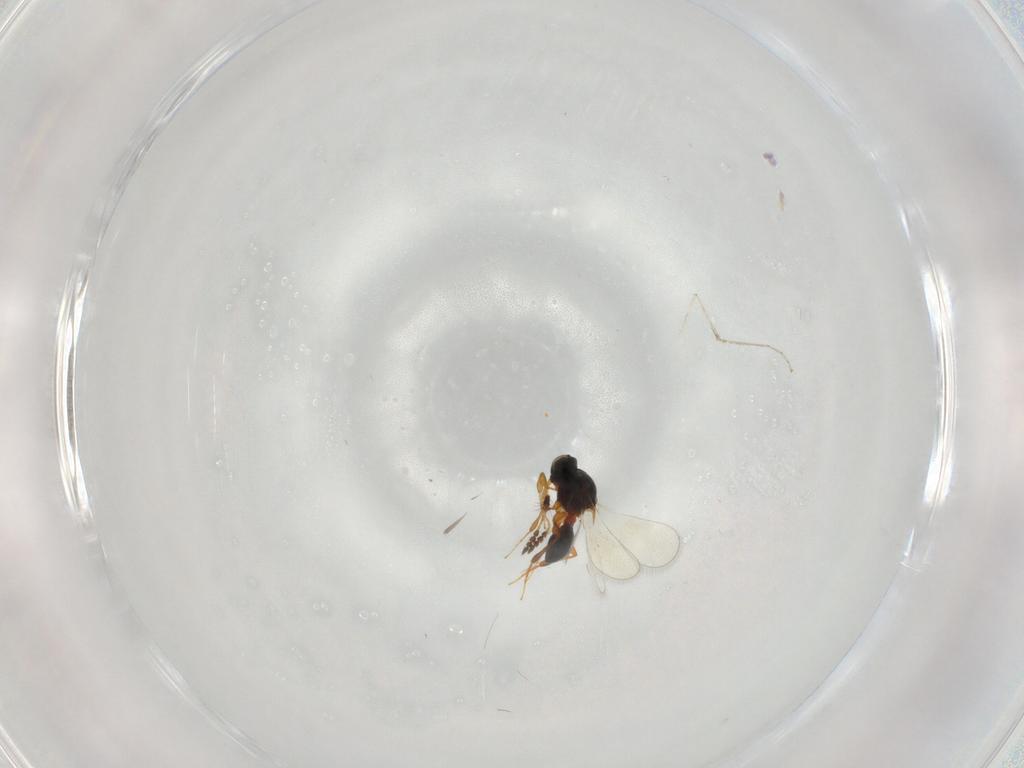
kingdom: Animalia
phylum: Arthropoda
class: Insecta
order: Hymenoptera
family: Platygastridae
